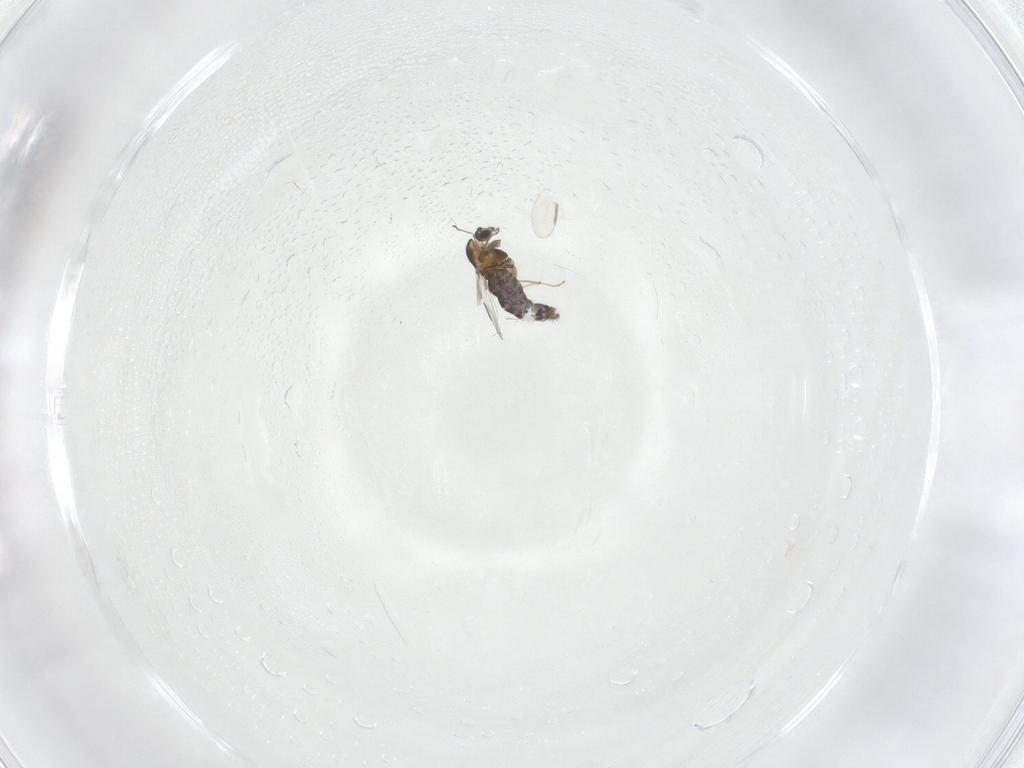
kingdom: Animalia
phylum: Arthropoda
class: Insecta
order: Diptera
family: Chironomidae
